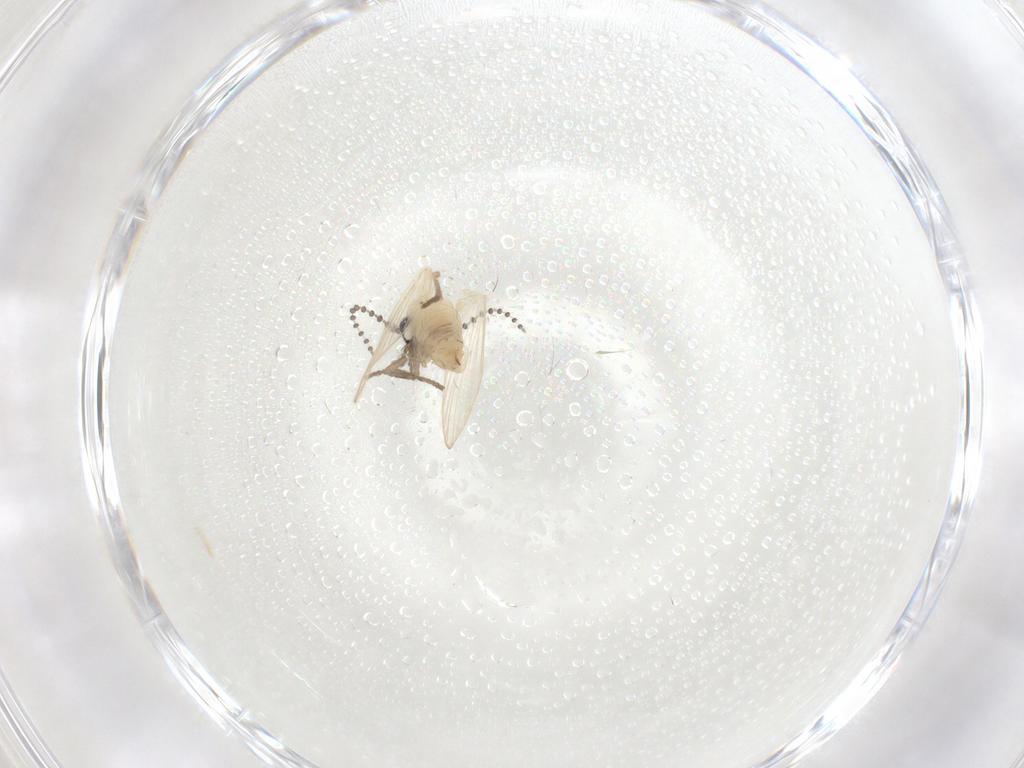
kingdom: Animalia
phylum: Arthropoda
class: Insecta
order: Diptera
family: Psychodidae
